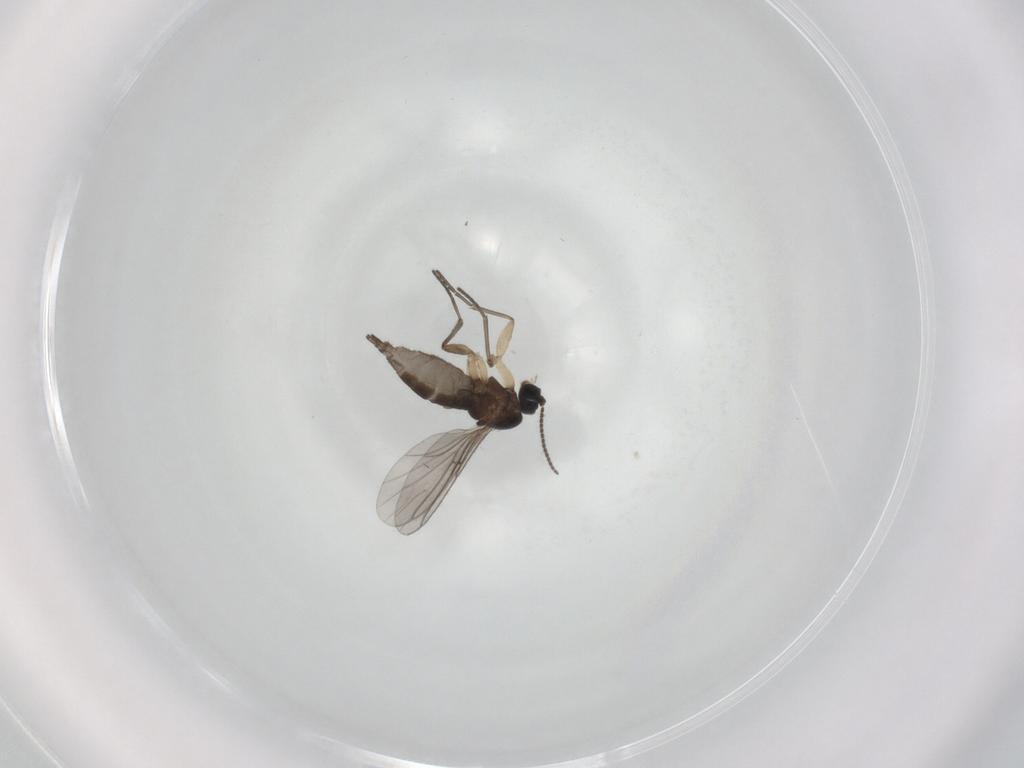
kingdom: Animalia
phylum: Arthropoda
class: Insecta
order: Diptera
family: Sciaridae
